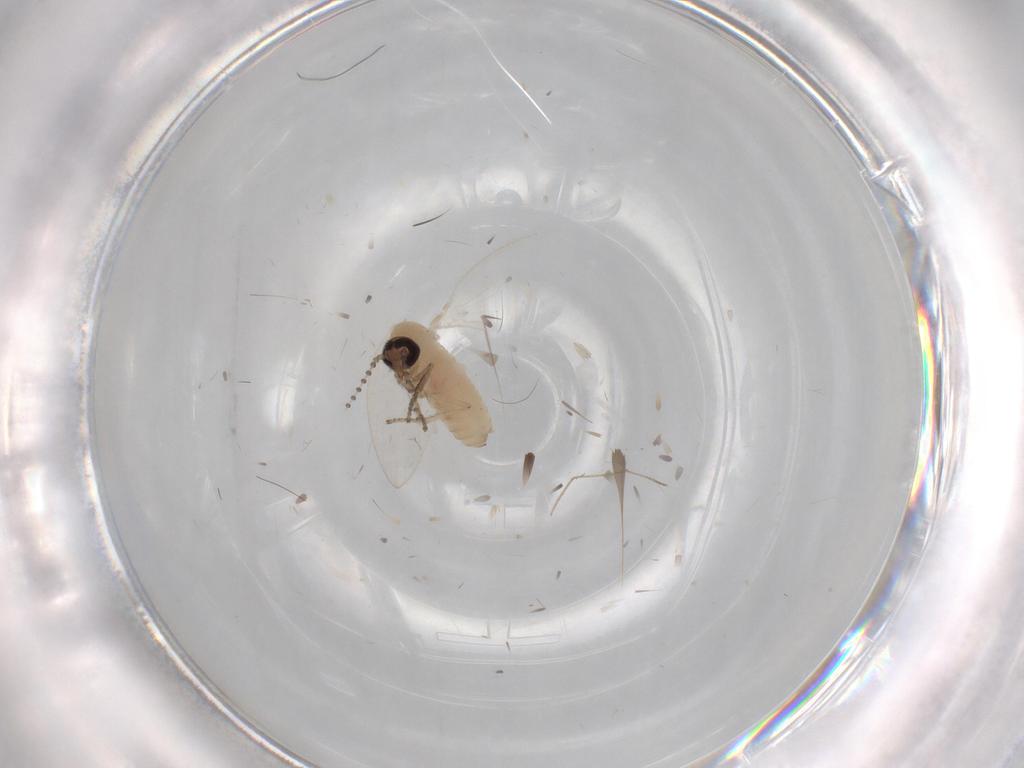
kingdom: Animalia
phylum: Arthropoda
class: Insecta
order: Diptera
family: Psychodidae
